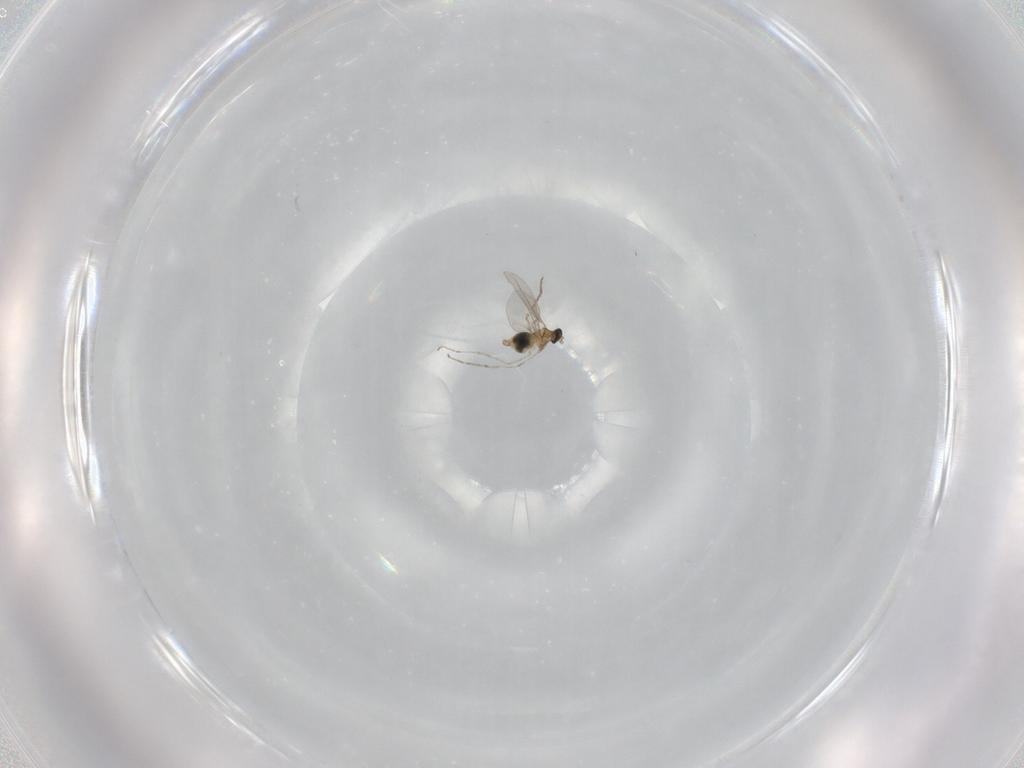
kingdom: Animalia
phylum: Arthropoda
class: Insecta
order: Diptera
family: Cecidomyiidae
